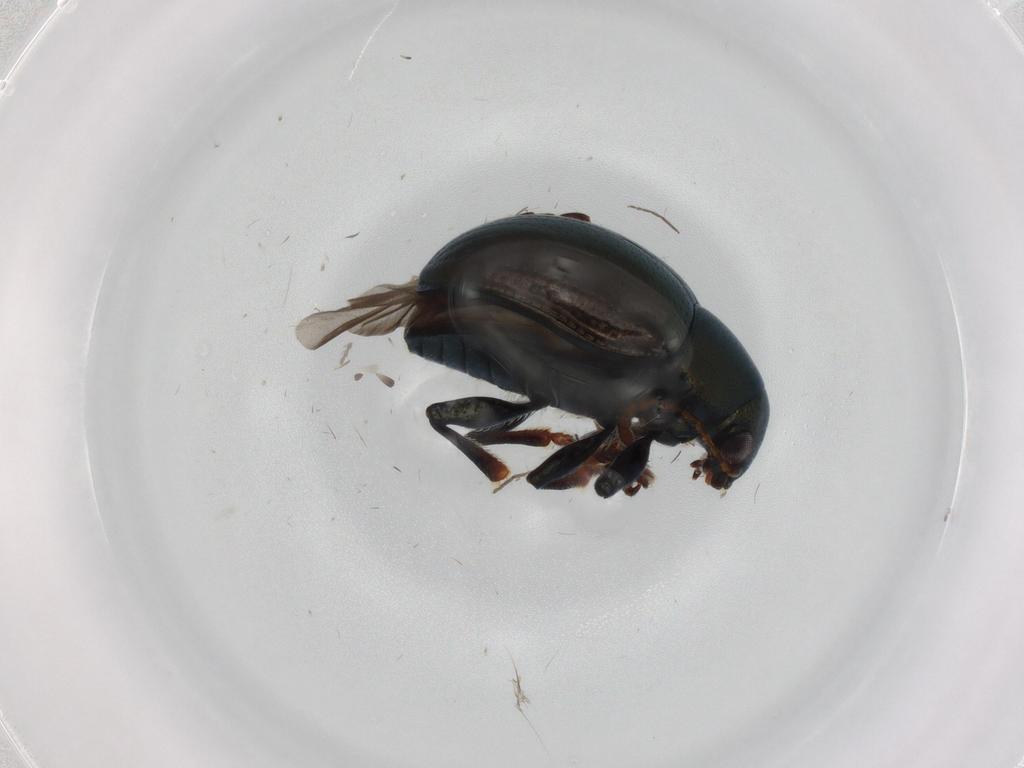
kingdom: Animalia
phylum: Arthropoda
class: Insecta
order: Coleoptera
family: Chrysomelidae
